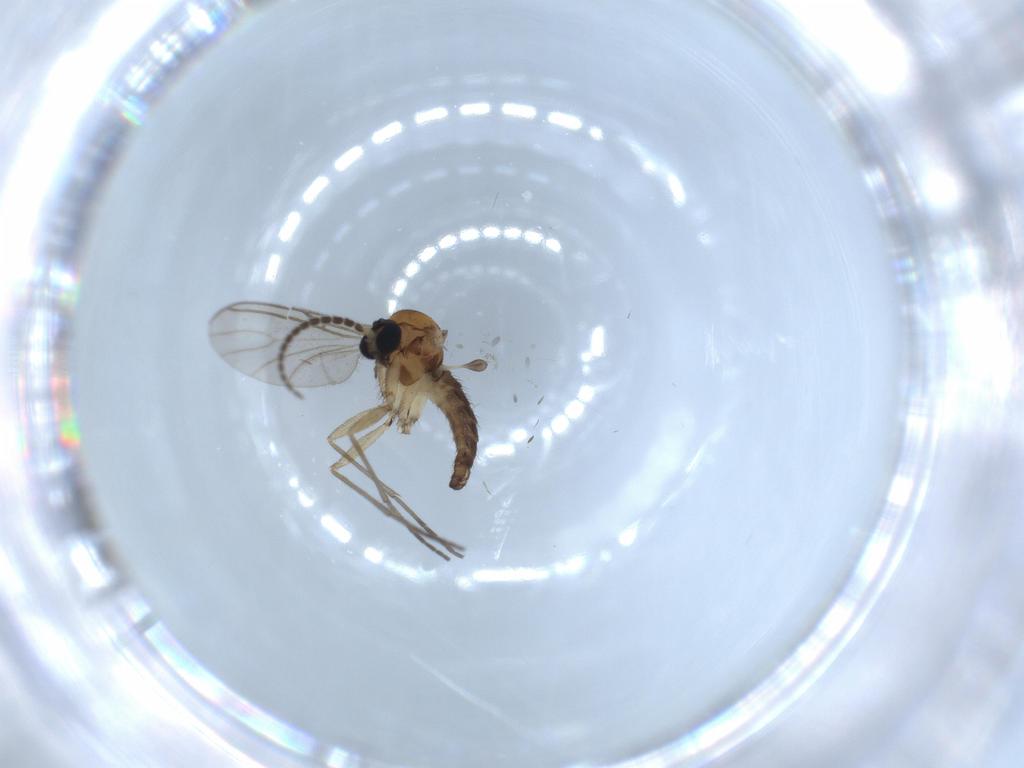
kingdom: Animalia
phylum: Arthropoda
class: Insecta
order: Diptera
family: Sciaridae
